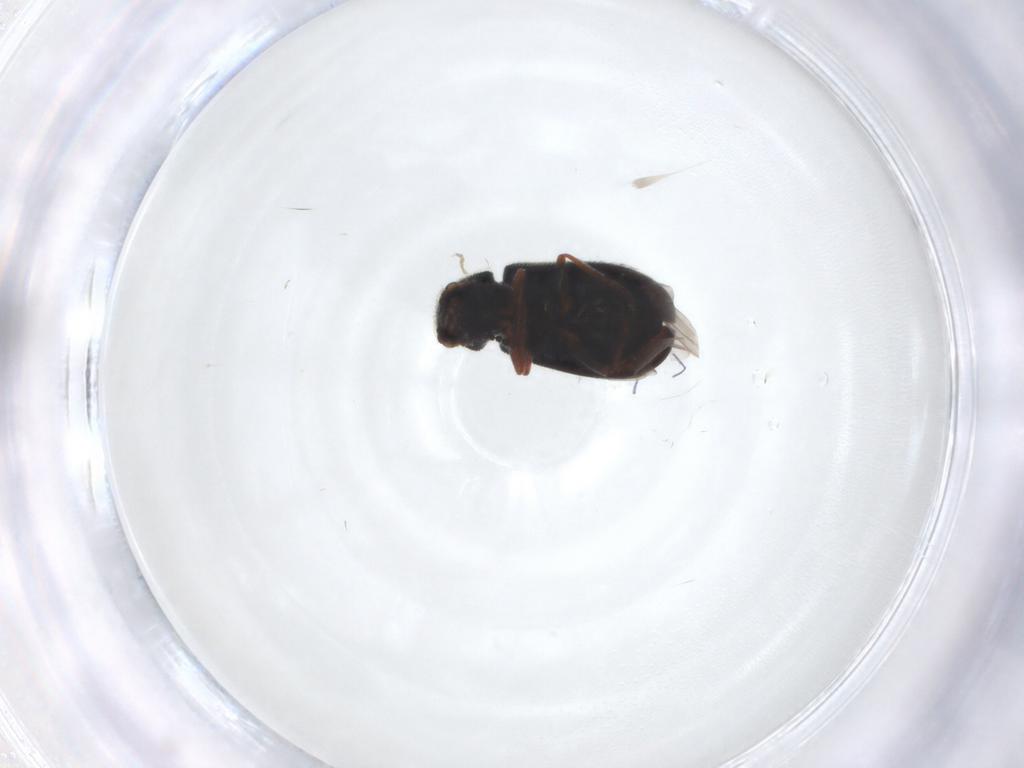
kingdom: Animalia
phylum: Arthropoda
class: Insecta
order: Coleoptera
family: Melyridae
